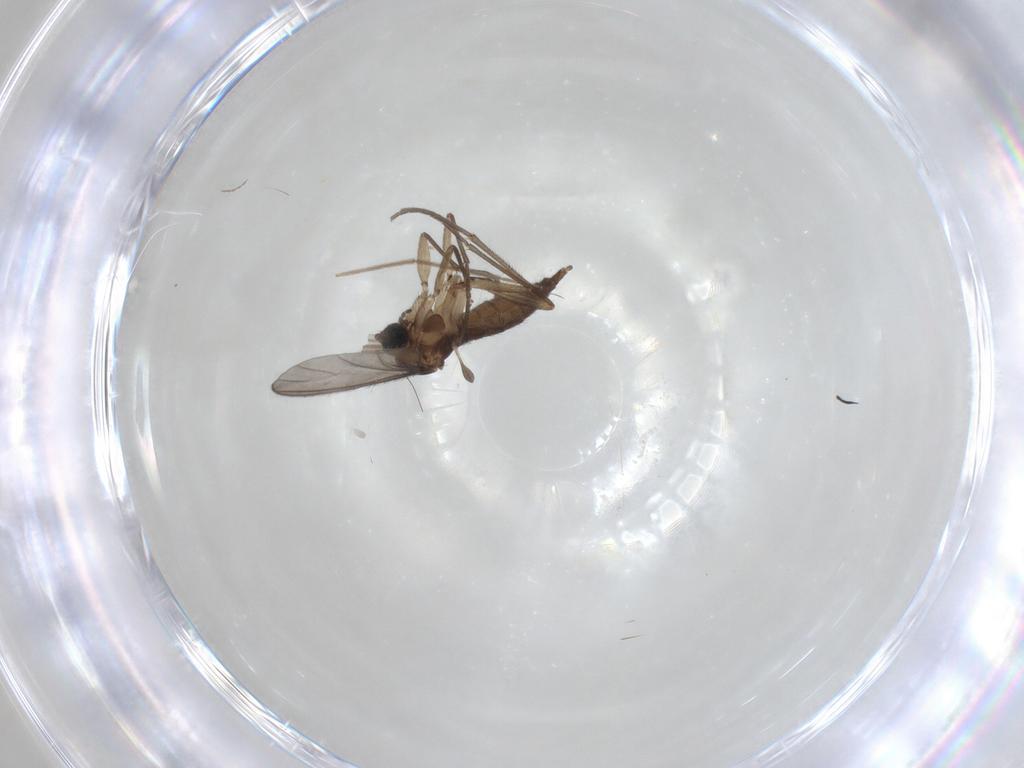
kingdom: Animalia
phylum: Arthropoda
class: Insecta
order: Diptera
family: Sciaridae
